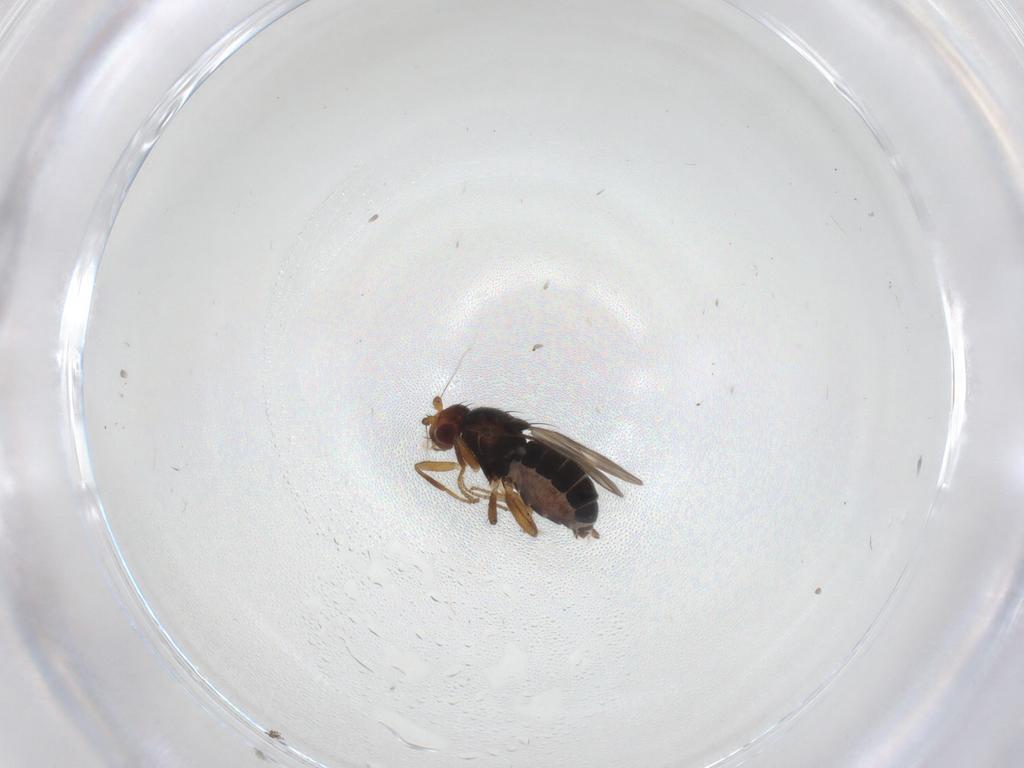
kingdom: Animalia
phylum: Arthropoda
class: Insecta
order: Diptera
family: Sphaeroceridae
